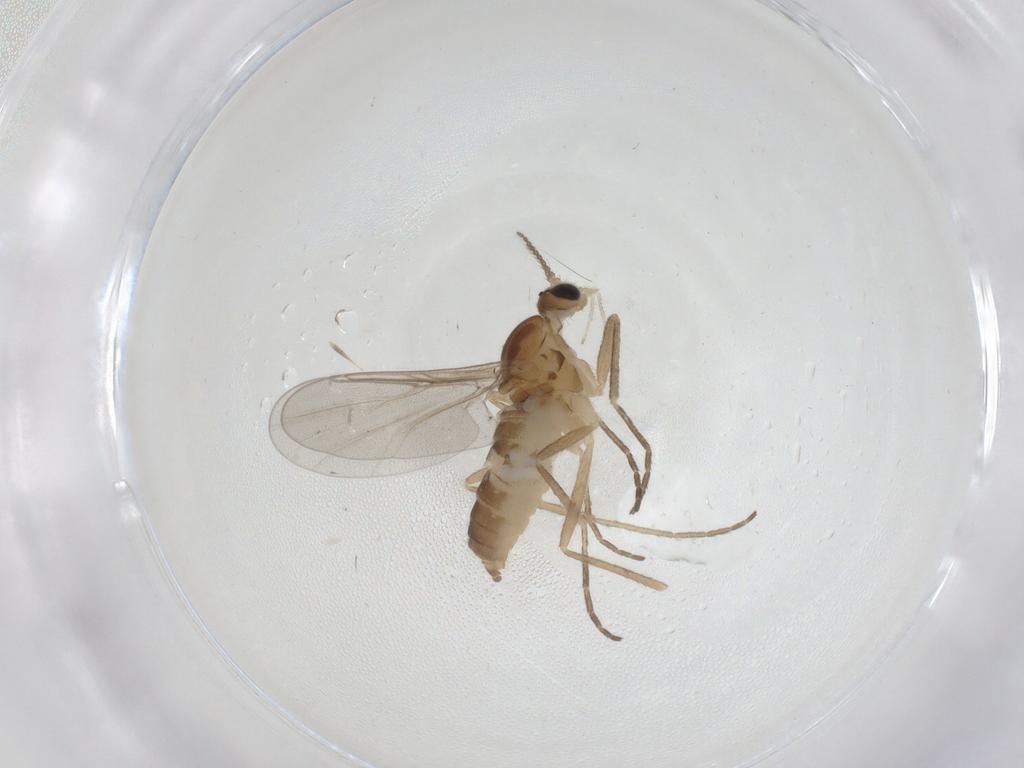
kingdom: Animalia
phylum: Arthropoda
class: Insecta
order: Diptera
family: Cecidomyiidae
